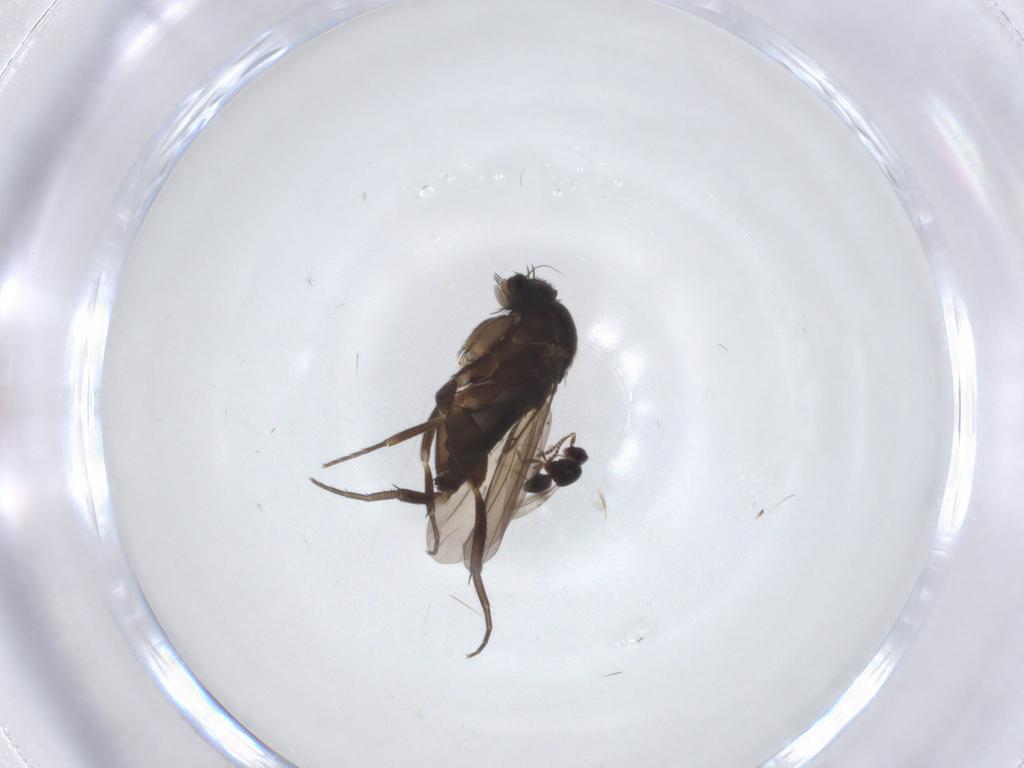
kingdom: Animalia
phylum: Arthropoda
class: Insecta
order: Diptera
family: Phoridae
